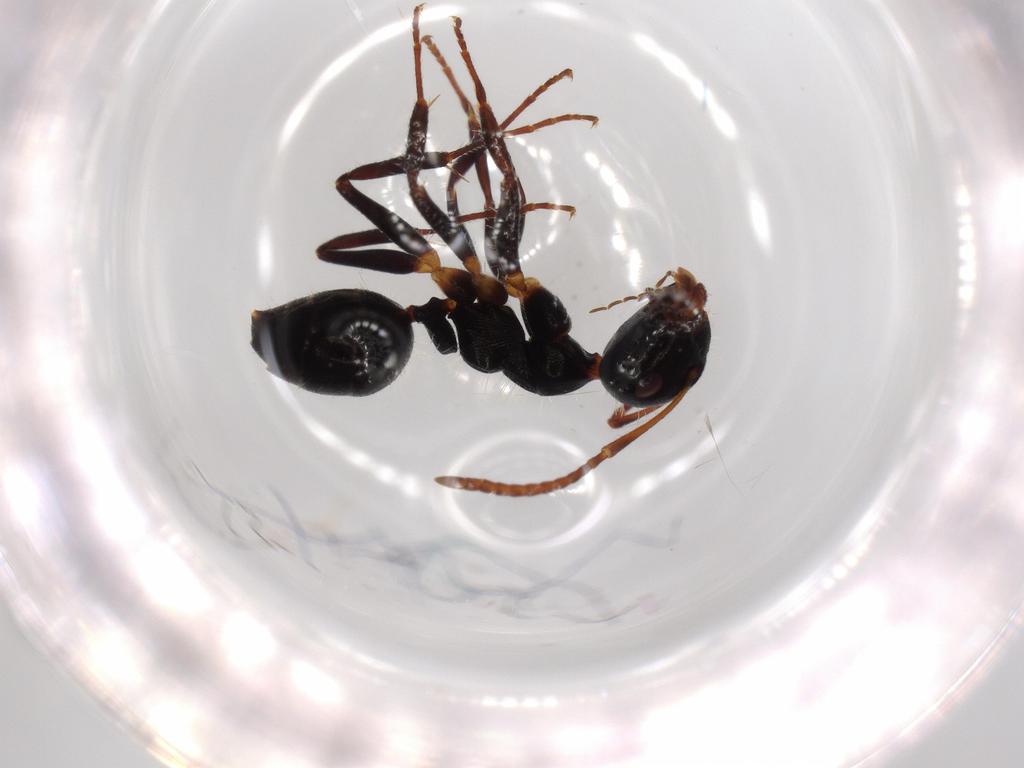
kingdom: Animalia
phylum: Arthropoda
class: Insecta
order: Hymenoptera
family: Formicidae
